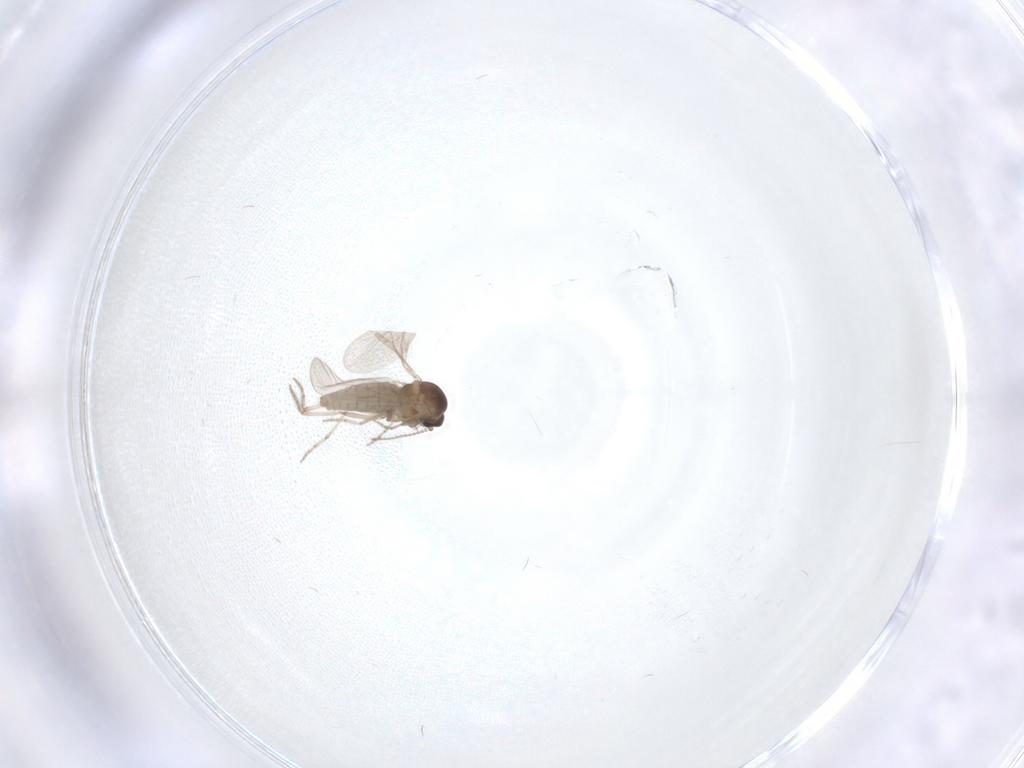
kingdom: Animalia
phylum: Arthropoda
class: Insecta
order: Diptera
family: Ceratopogonidae
